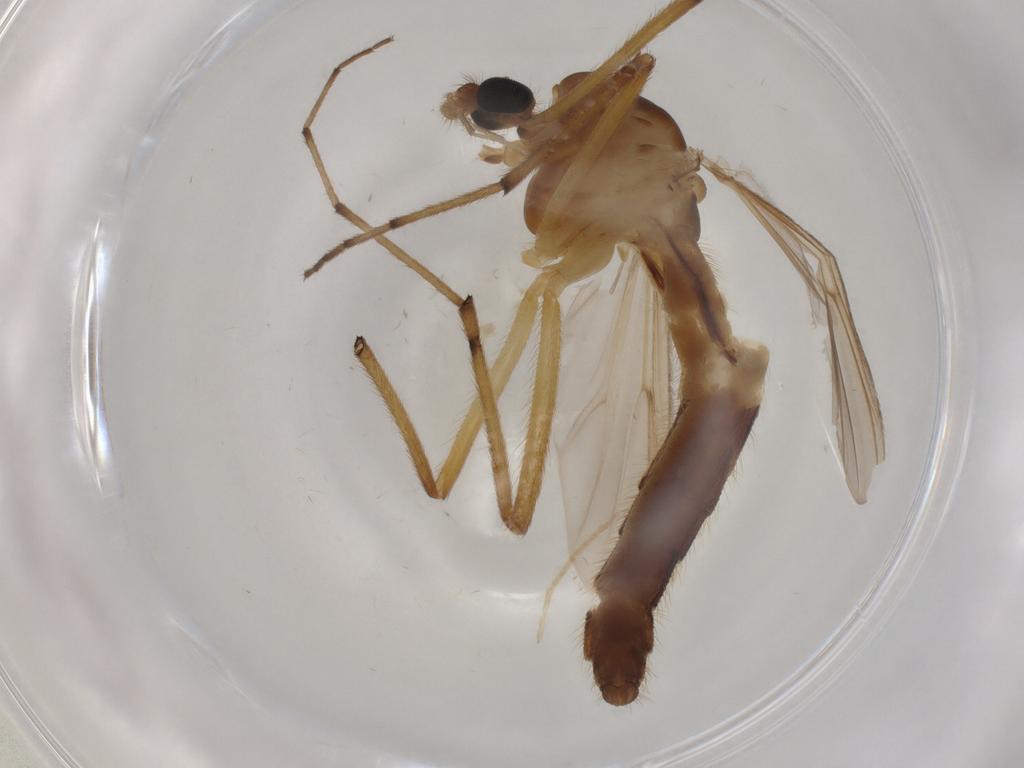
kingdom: Animalia
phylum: Arthropoda
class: Insecta
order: Diptera
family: Chironomidae
